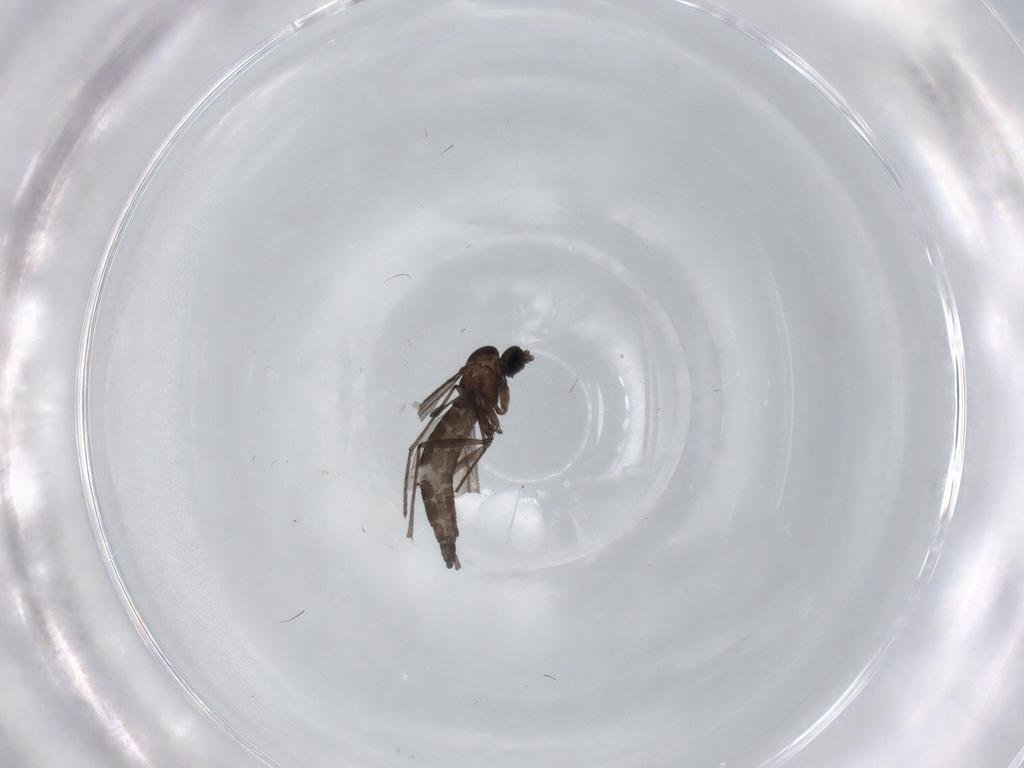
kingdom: Animalia
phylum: Arthropoda
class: Insecta
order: Diptera
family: Sciaridae
